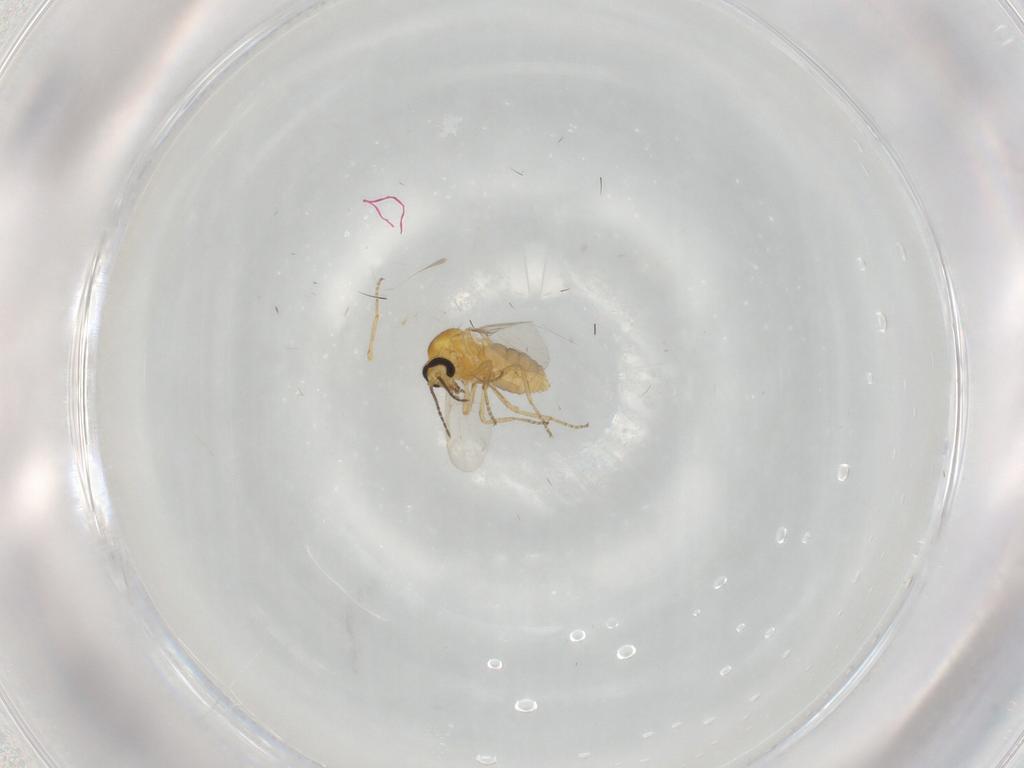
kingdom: Animalia
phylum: Arthropoda
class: Insecta
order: Diptera
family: Ceratopogonidae
